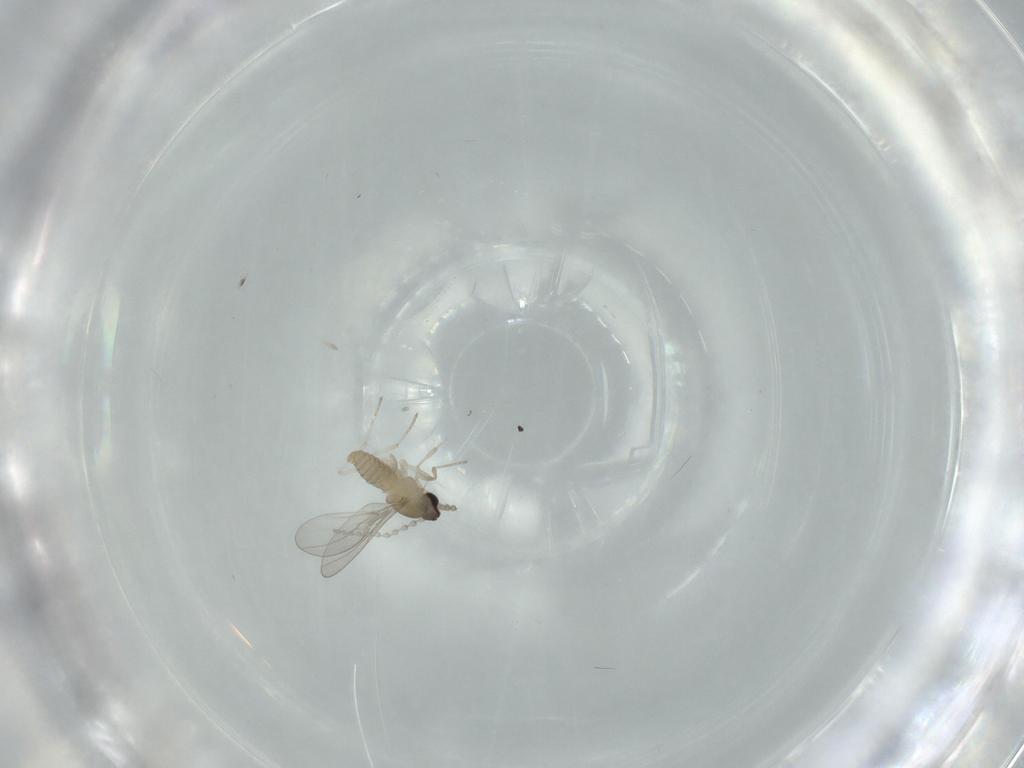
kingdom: Animalia
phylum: Arthropoda
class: Insecta
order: Diptera
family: Cecidomyiidae
